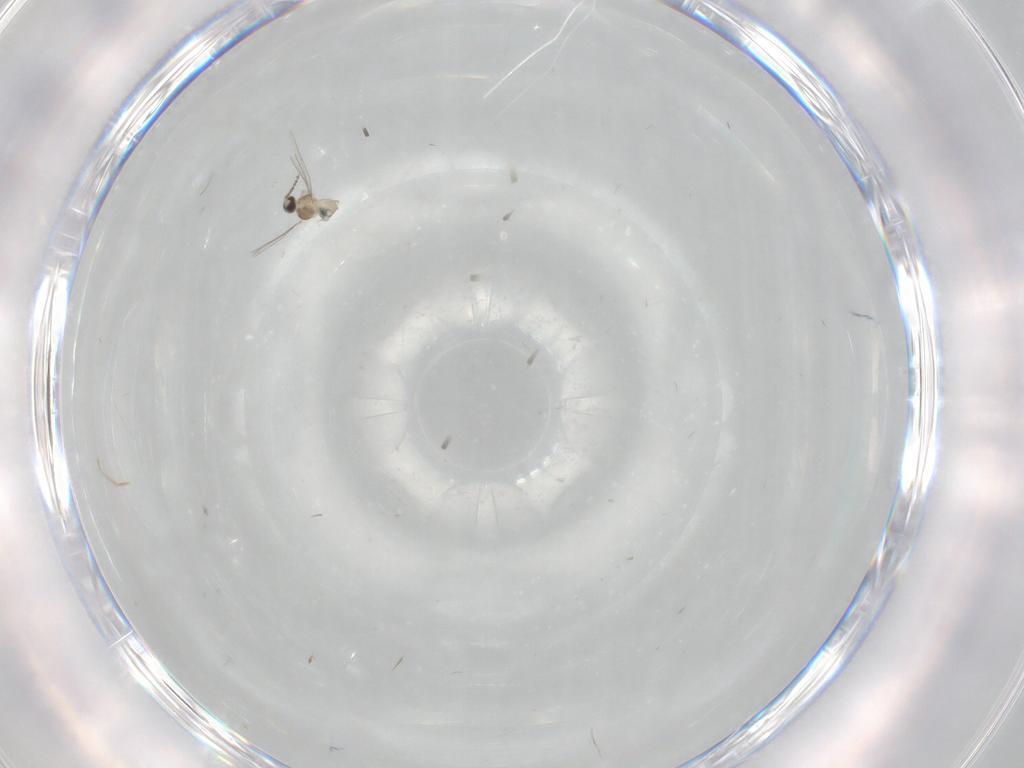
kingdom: Animalia
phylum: Arthropoda
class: Insecta
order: Diptera
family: Cecidomyiidae
